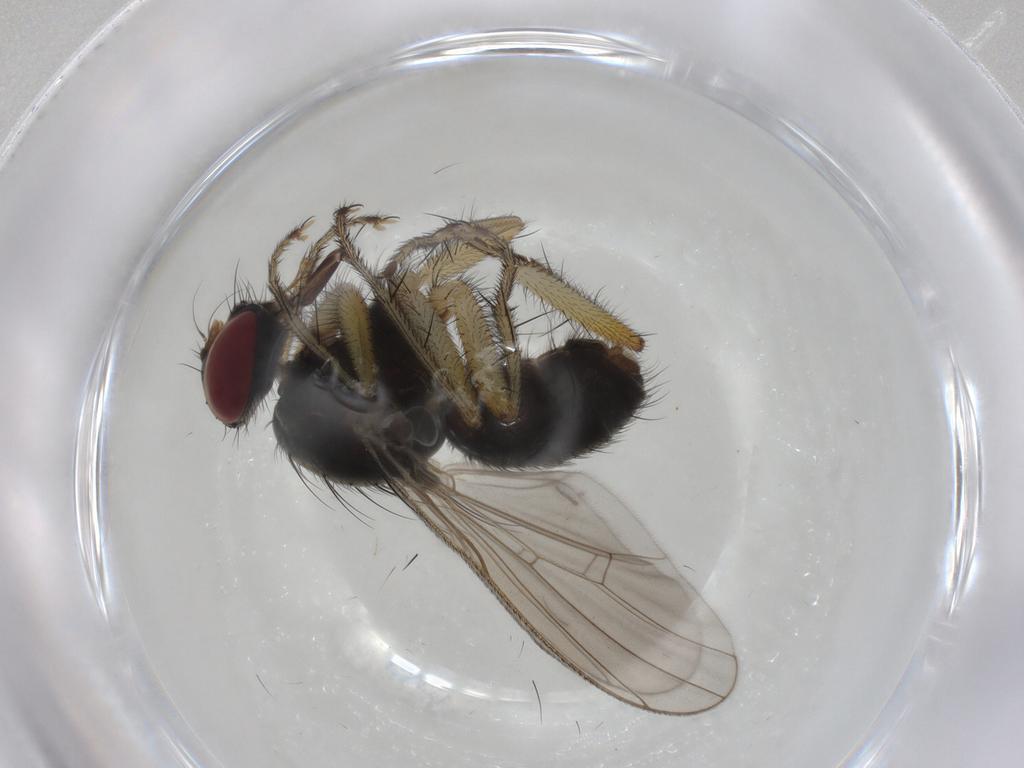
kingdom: Animalia
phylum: Arthropoda
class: Insecta
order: Diptera
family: Muscidae
